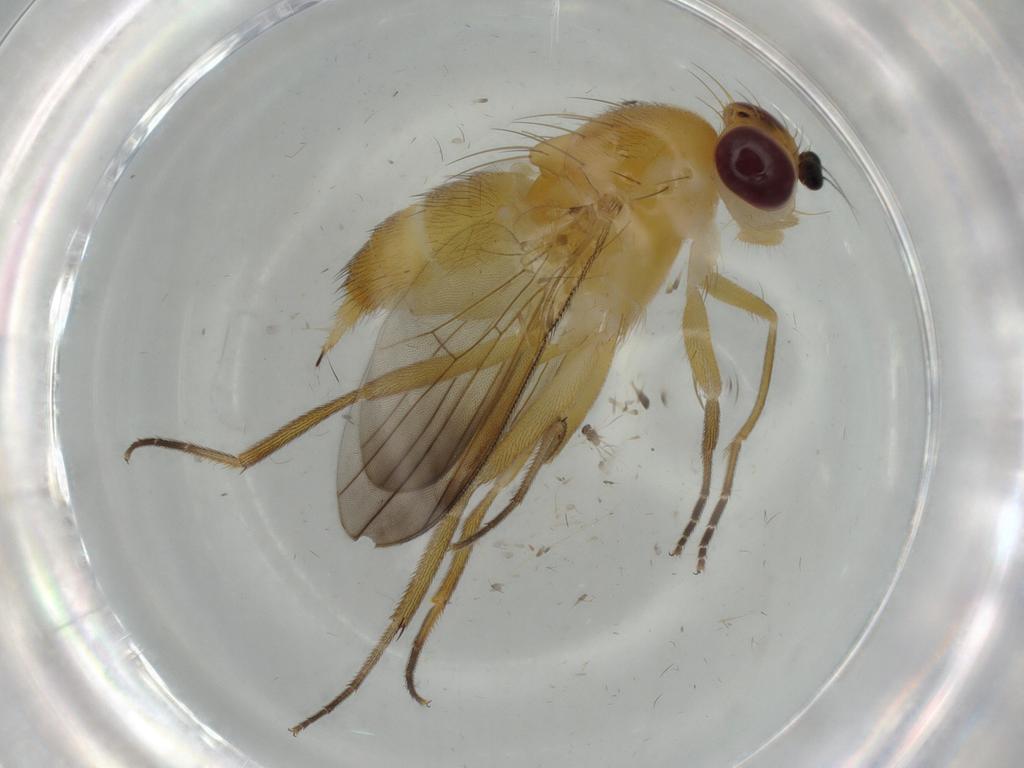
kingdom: Animalia
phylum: Arthropoda
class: Insecta
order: Diptera
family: Clusiidae
